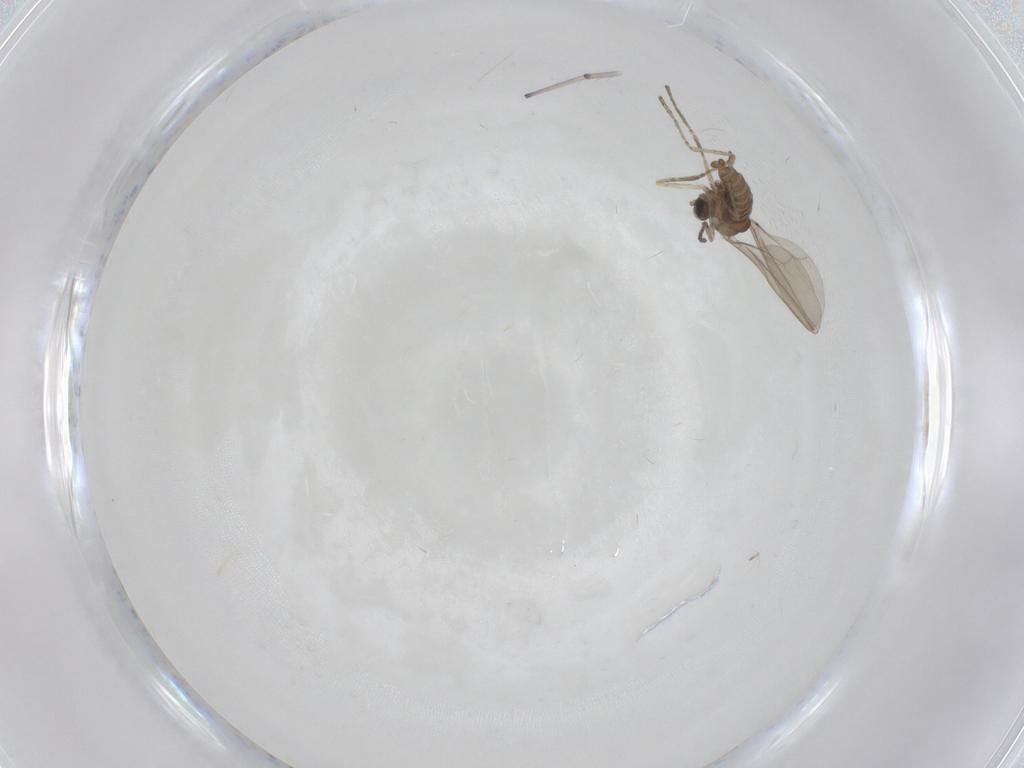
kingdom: Animalia
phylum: Arthropoda
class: Insecta
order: Diptera
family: Cecidomyiidae
